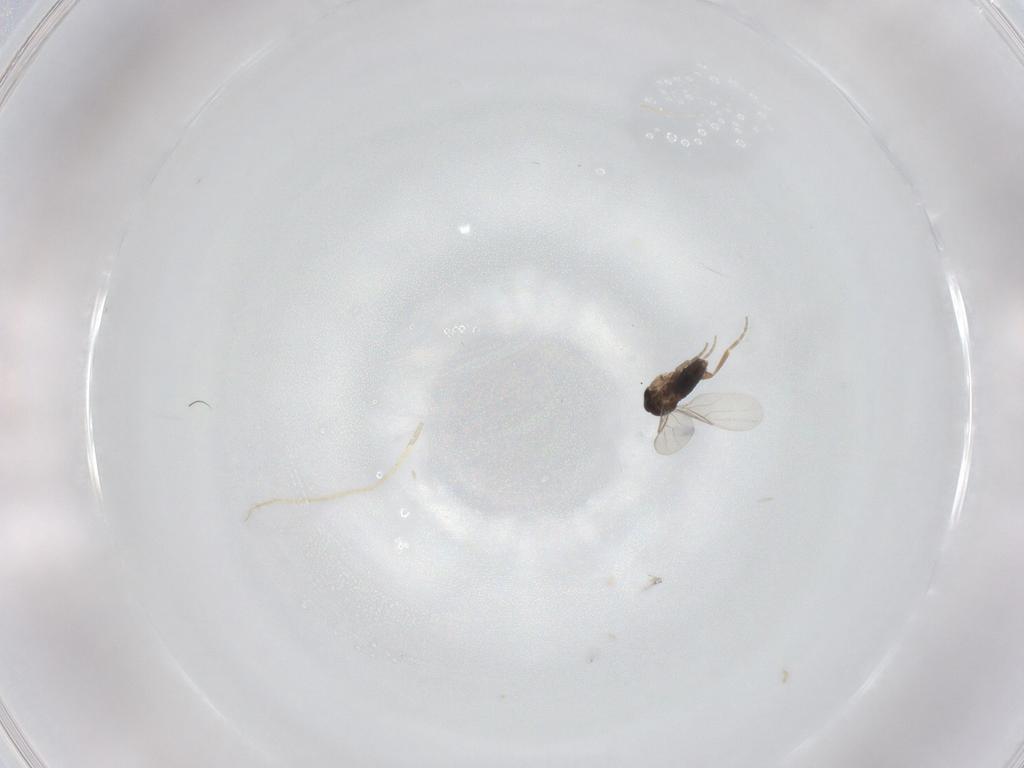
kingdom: Animalia
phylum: Arthropoda
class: Insecta
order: Diptera
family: Phoridae
